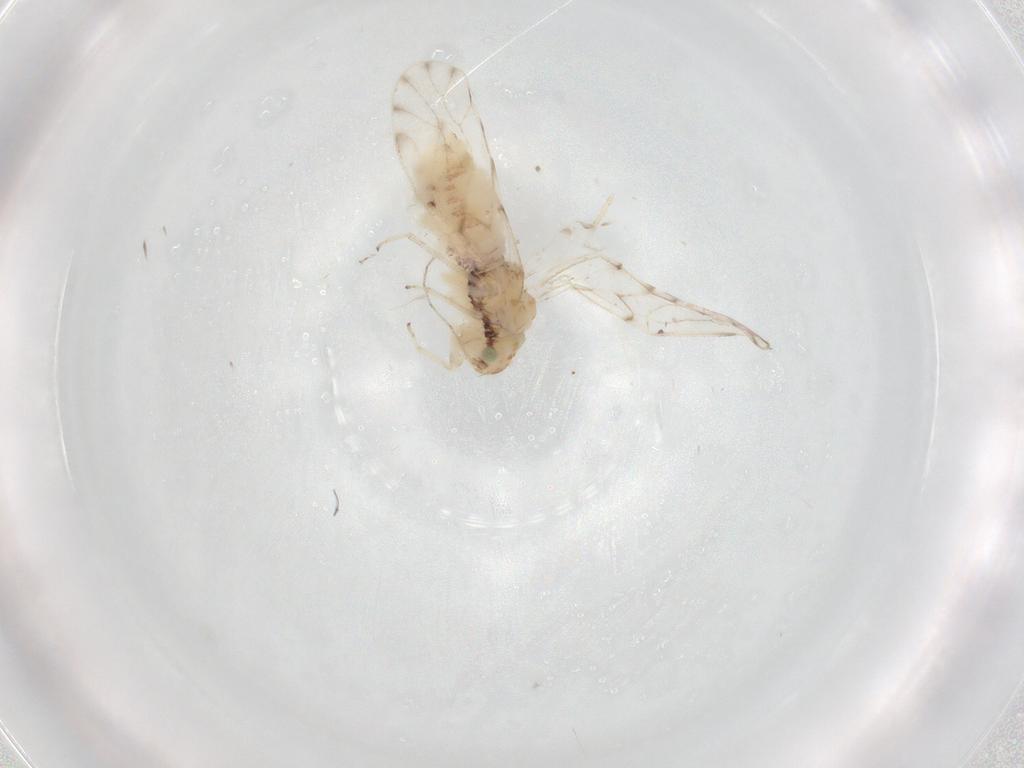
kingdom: Animalia
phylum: Arthropoda
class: Insecta
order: Psocodea
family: Ectopsocidae
